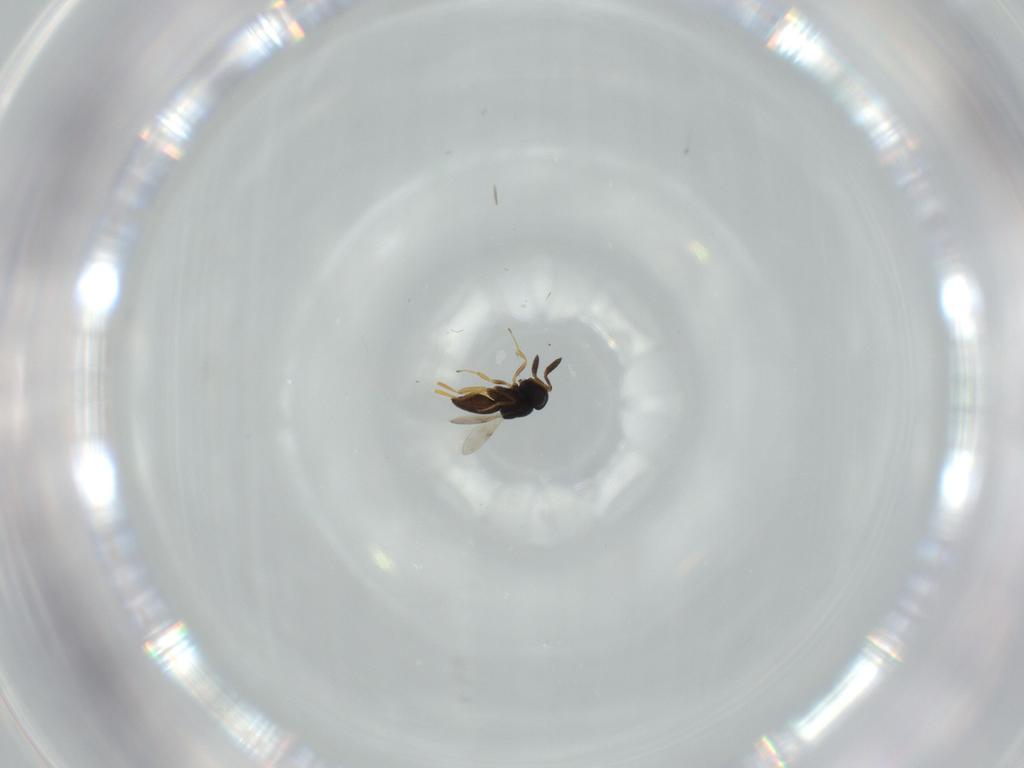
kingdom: Animalia
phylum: Arthropoda
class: Insecta
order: Hymenoptera
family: Scelionidae
